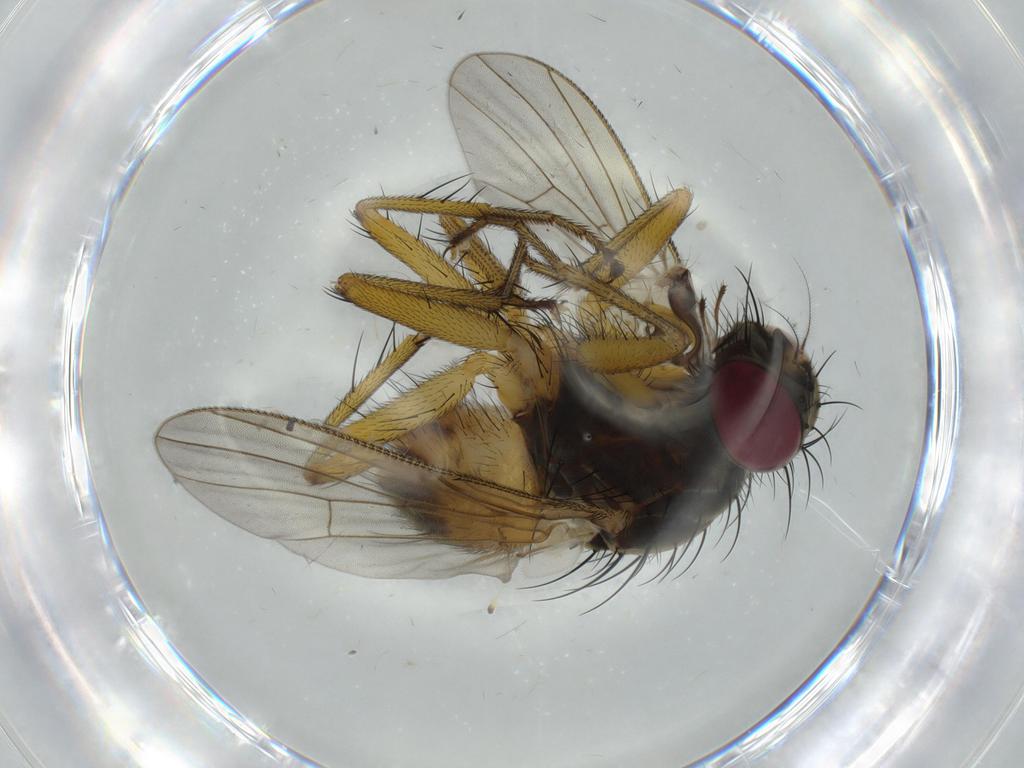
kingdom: Animalia
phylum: Arthropoda
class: Insecta
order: Diptera
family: Muscidae
